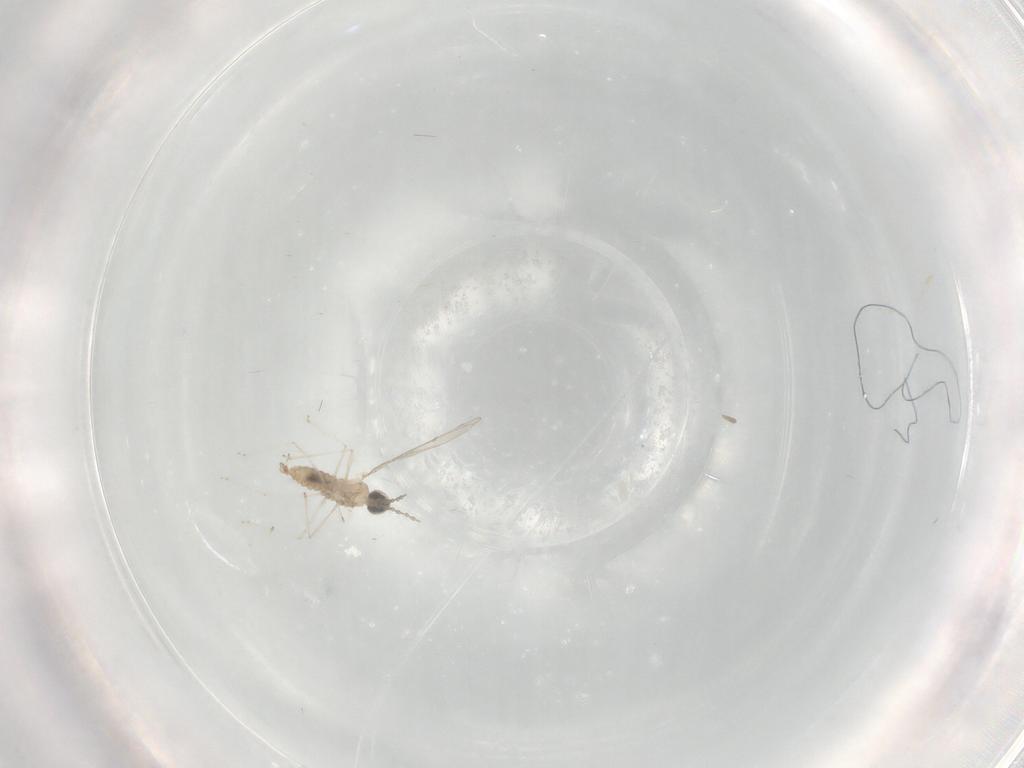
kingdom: Animalia
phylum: Arthropoda
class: Insecta
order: Diptera
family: Cecidomyiidae
